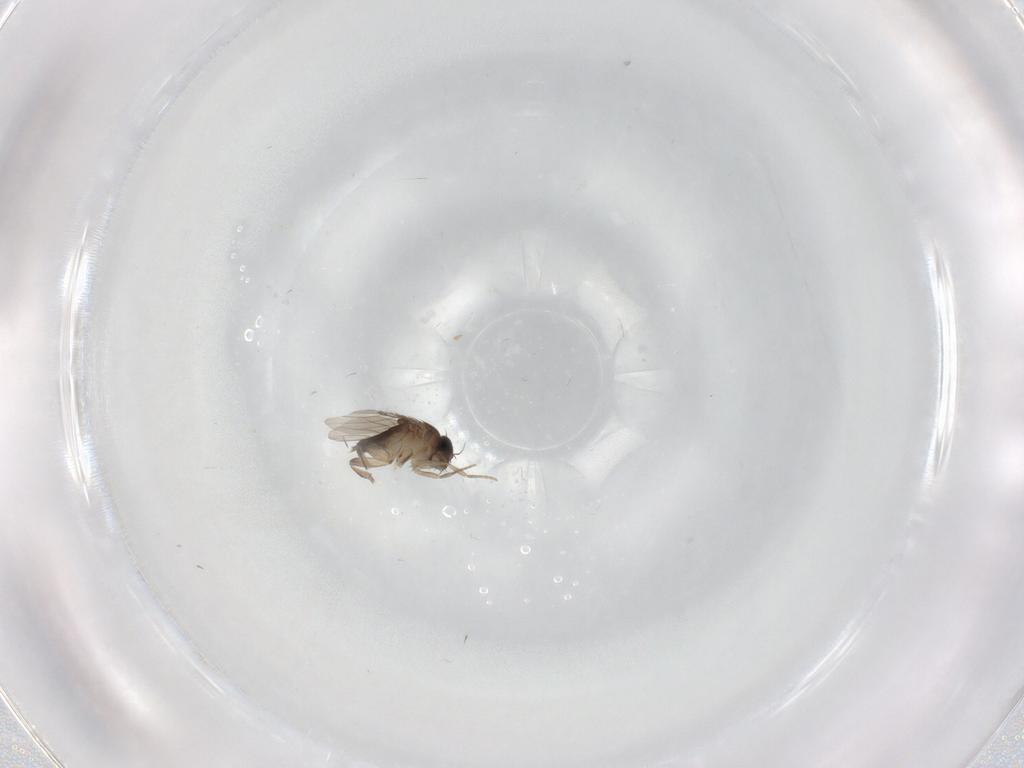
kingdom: Animalia
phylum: Arthropoda
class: Insecta
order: Diptera
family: Phoridae
